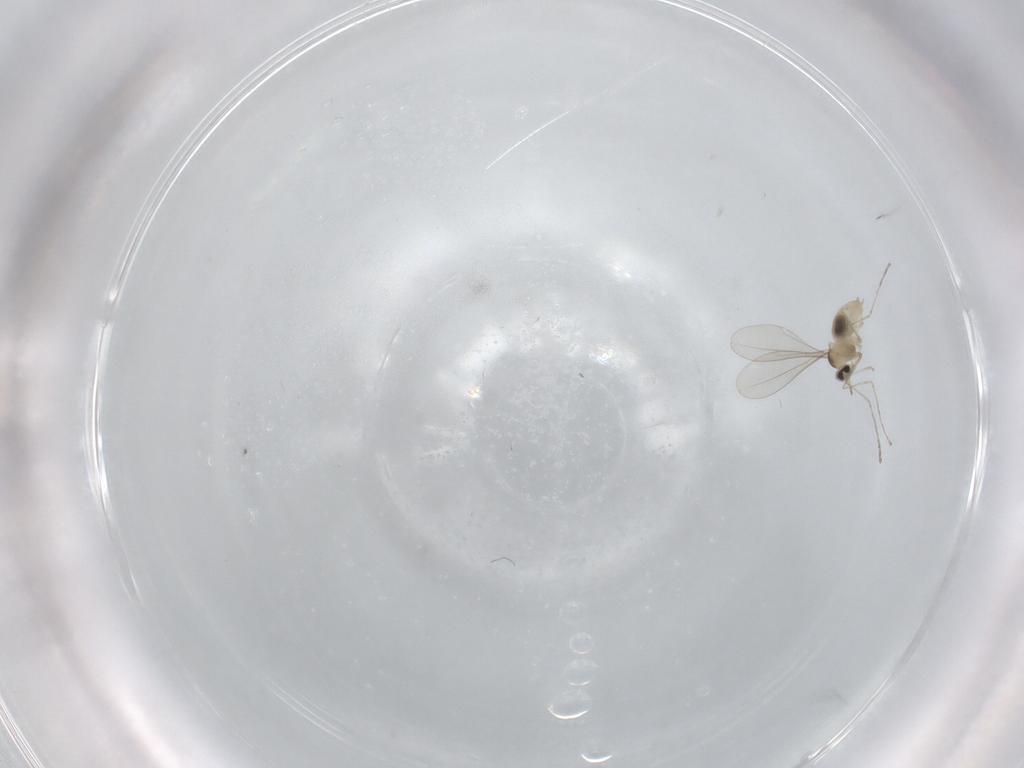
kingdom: Animalia
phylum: Arthropoda
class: Insecta
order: Diptera
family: Cecidomyiidae
